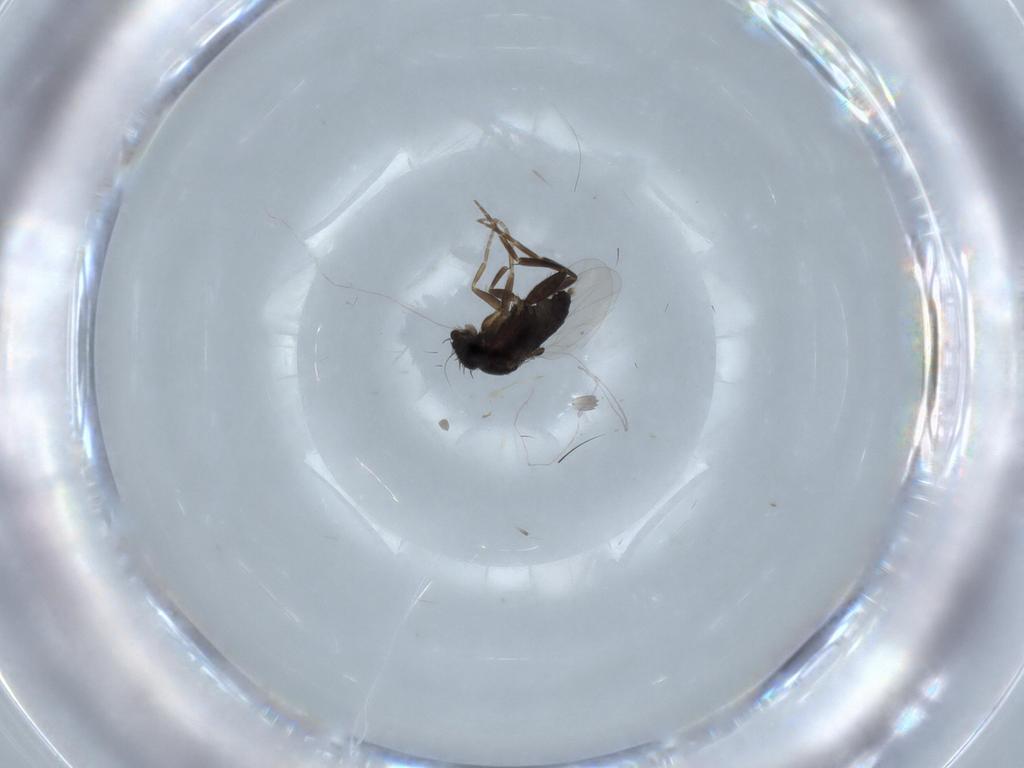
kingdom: Animalia
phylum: Arthropoda
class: Insecta
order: Diptera
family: Phoridae
